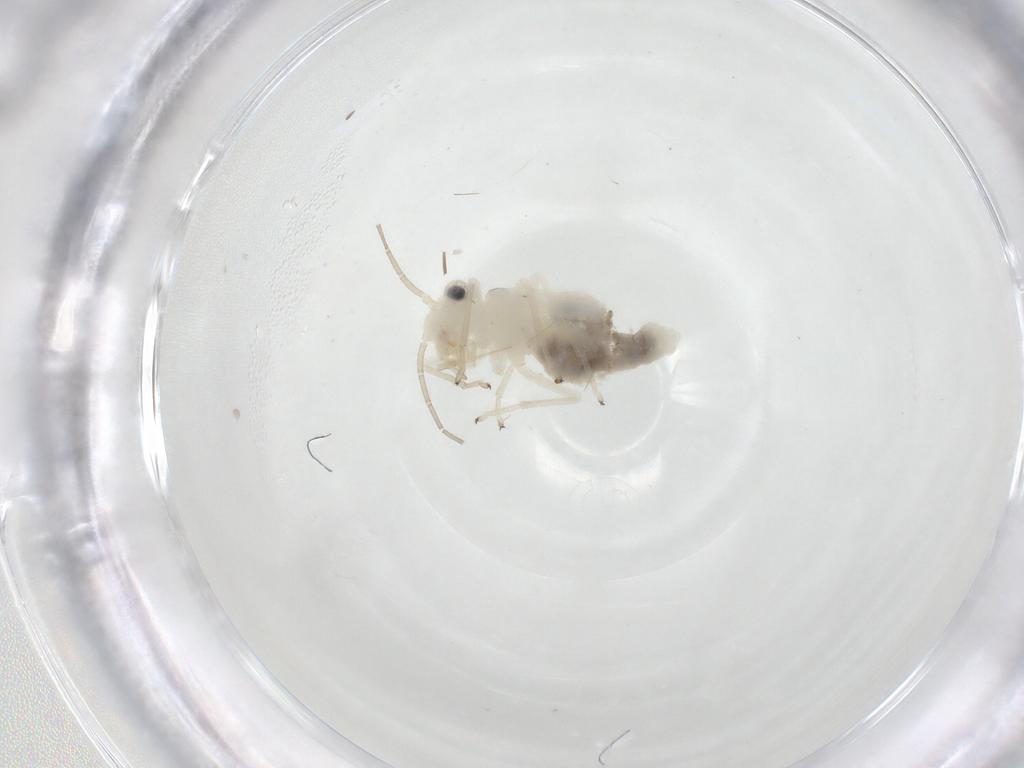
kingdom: Animalia
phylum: Arthropoda
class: Insecta
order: Psocodea
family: Caeciliusidae
